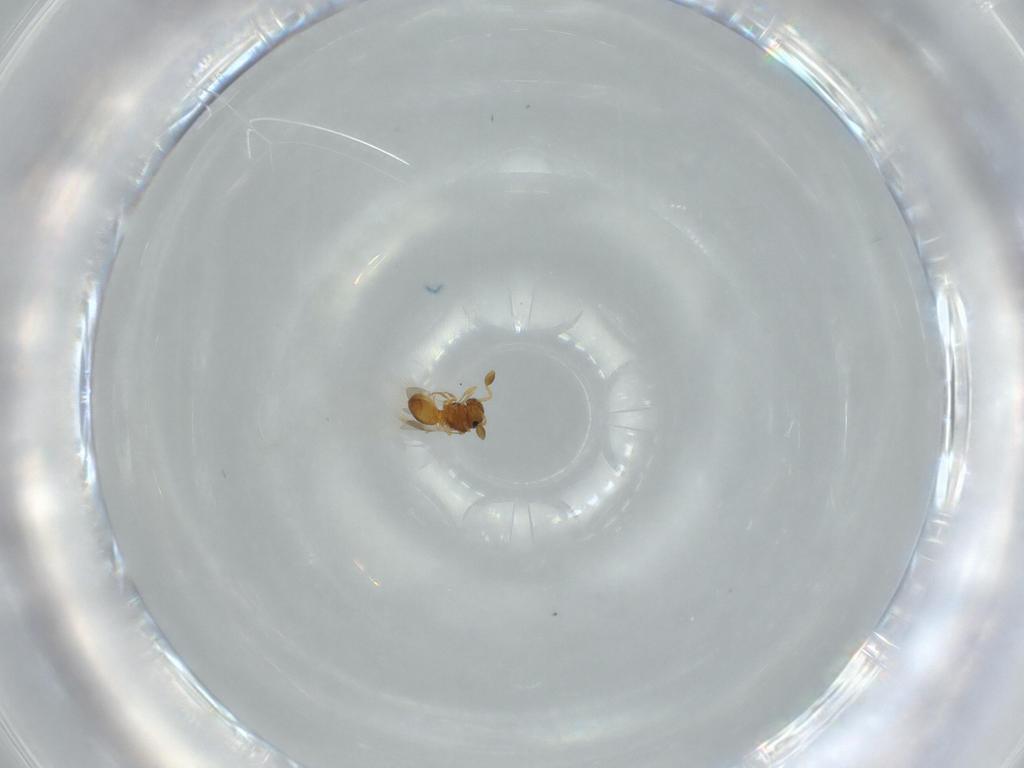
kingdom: Animalia
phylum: Arthropoda
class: Insecta
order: Hymenoptera
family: Scelionidae
